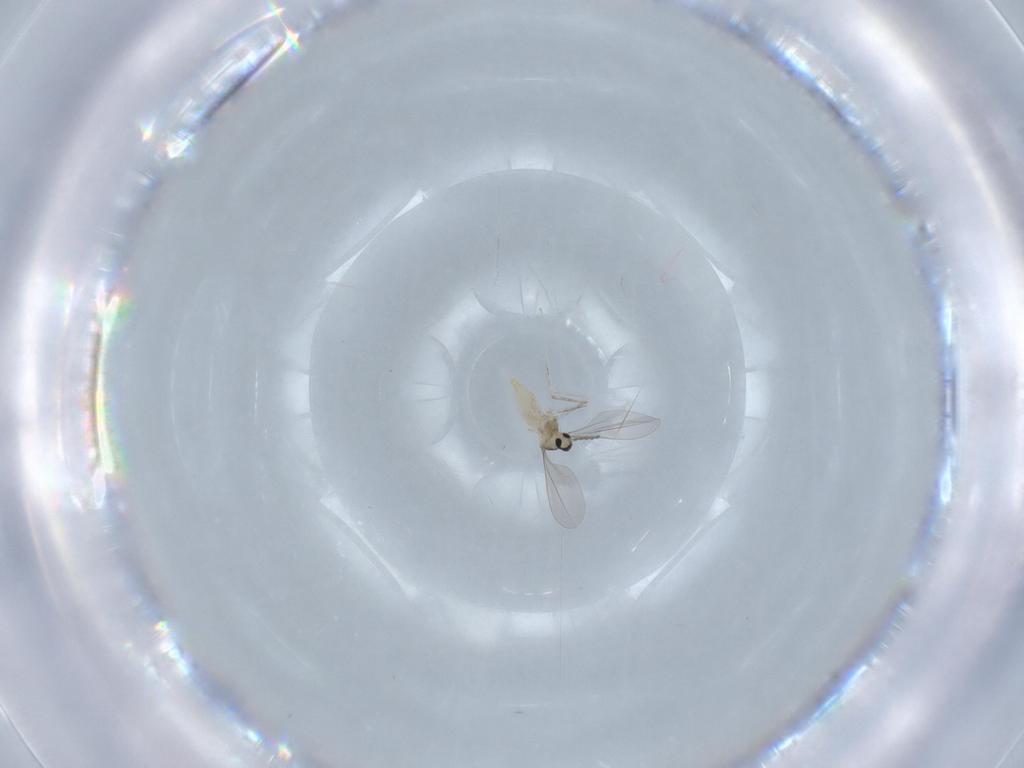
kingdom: Animalia
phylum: Arthropoda
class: Insecta
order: Diptera
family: Cecidomyiidae
